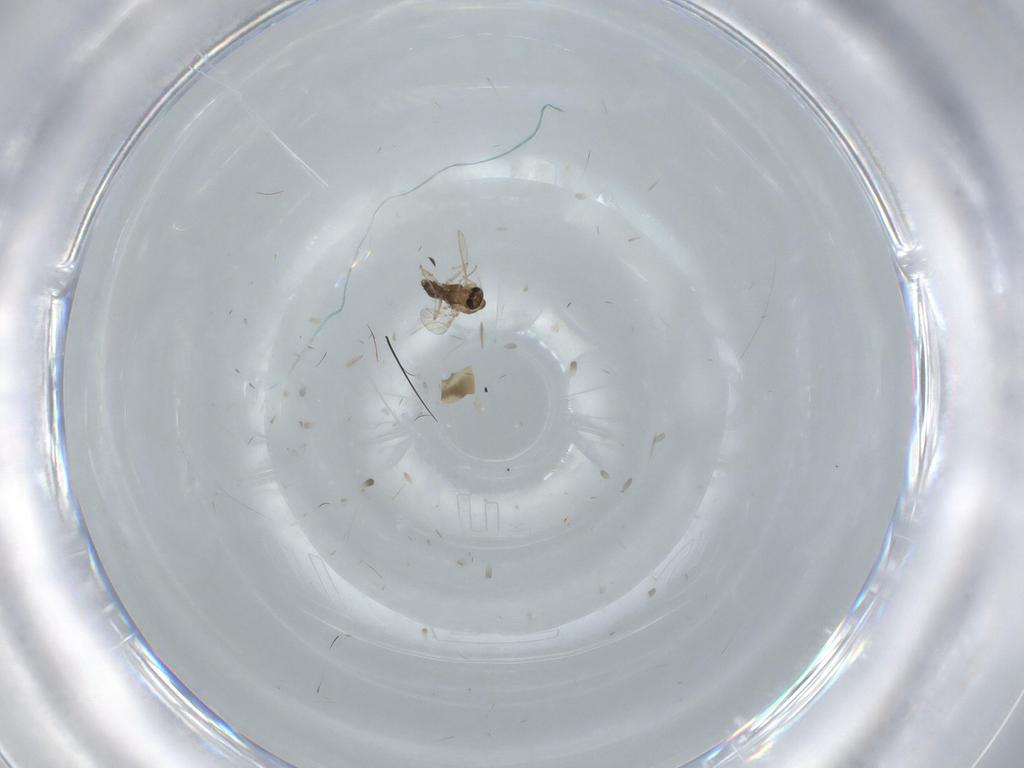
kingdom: Animalia
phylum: Arthropoda
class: Insecta
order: Diptera
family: Chironomidae
